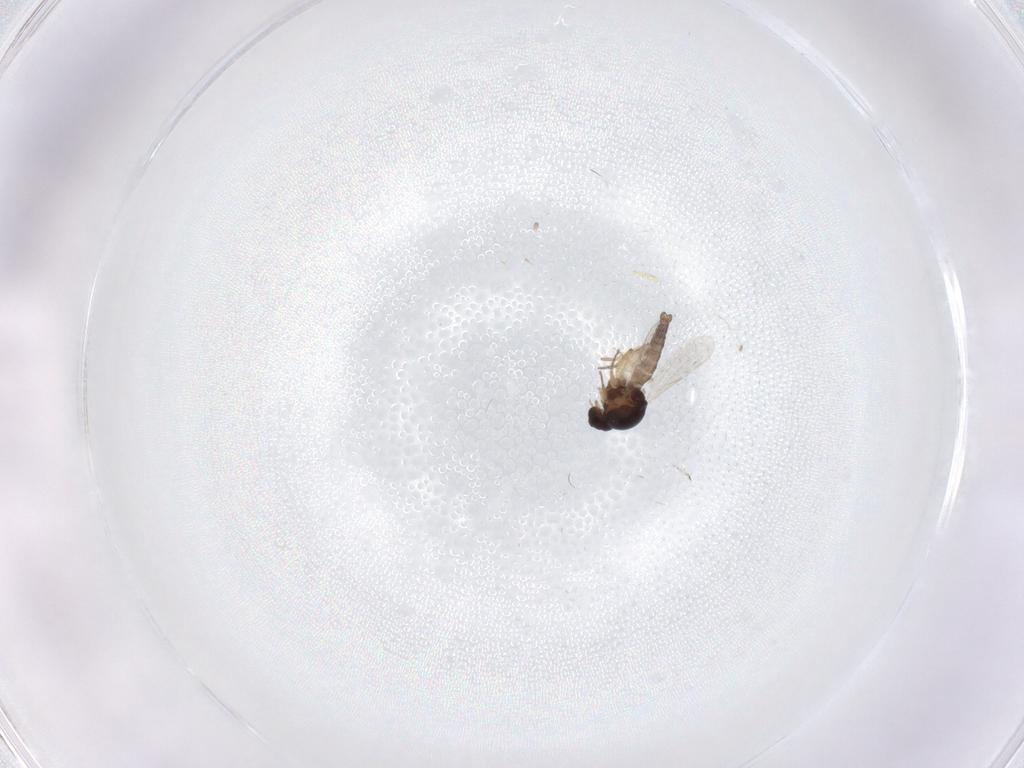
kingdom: Animalia
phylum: Arthropoda
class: Insecta
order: Diptera
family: Ceratopogonidae
